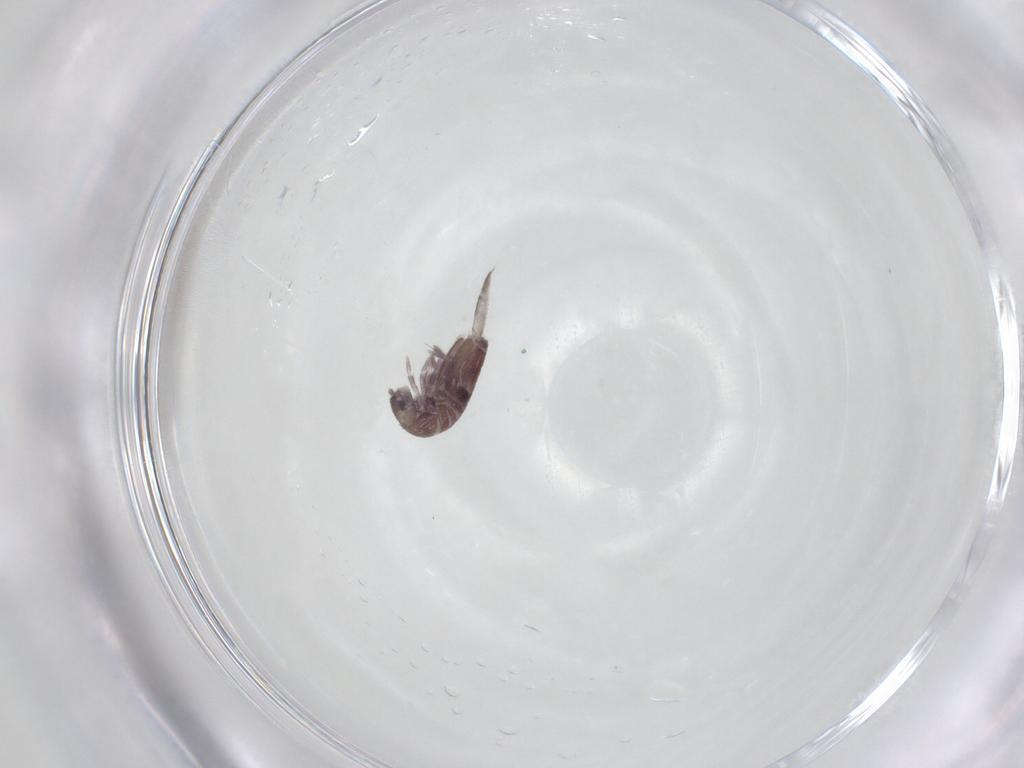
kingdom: Animalia
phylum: Arthropoda
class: Collembola
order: Entomobryomorpha
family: Entomobryidae
